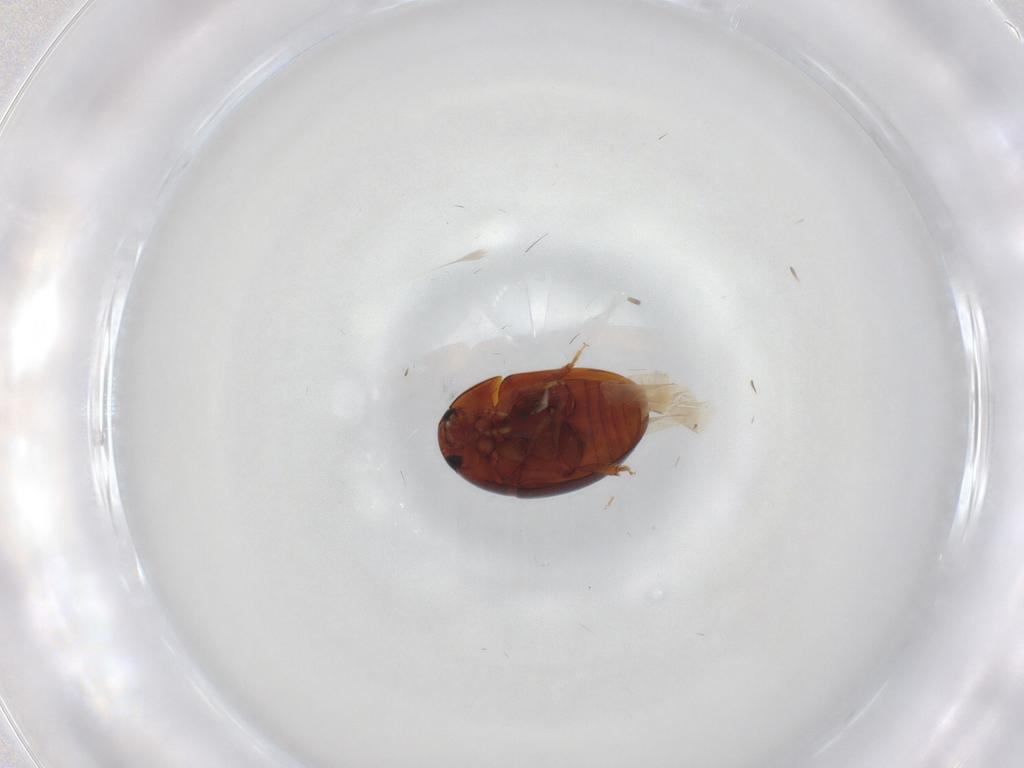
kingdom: Animalia
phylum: Arthropoda
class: Insecta
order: Coleoptera
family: Phalacridae
